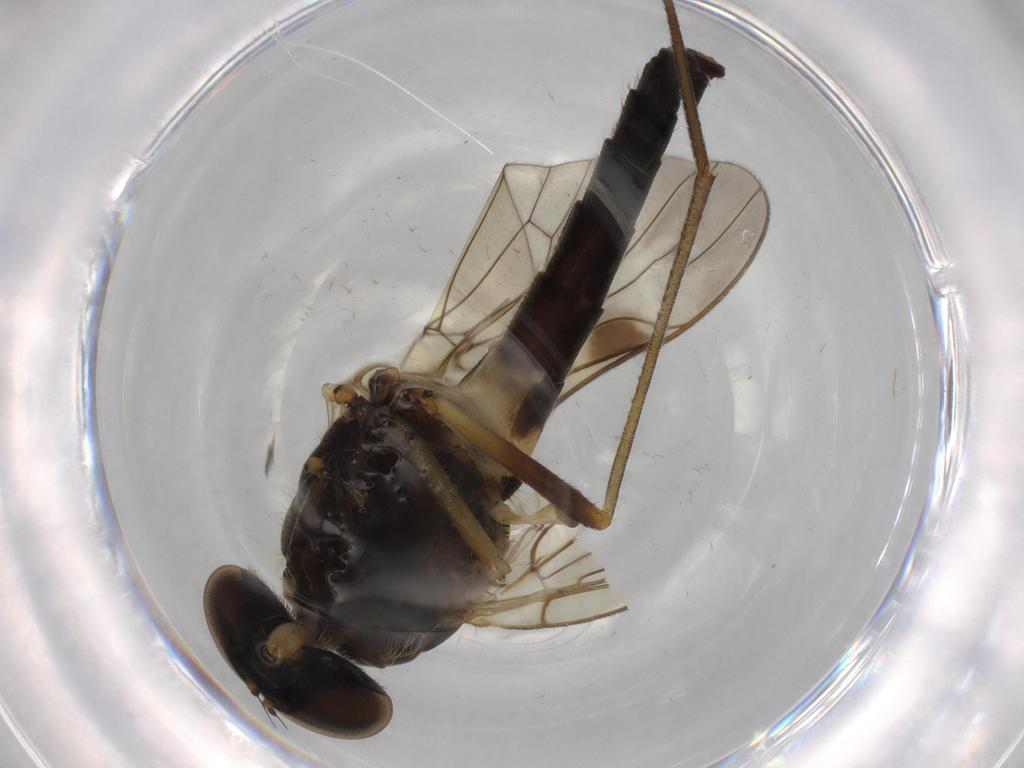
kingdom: Animalia
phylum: Arthropoda
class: Insecta
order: Diptera
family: Phoridae
